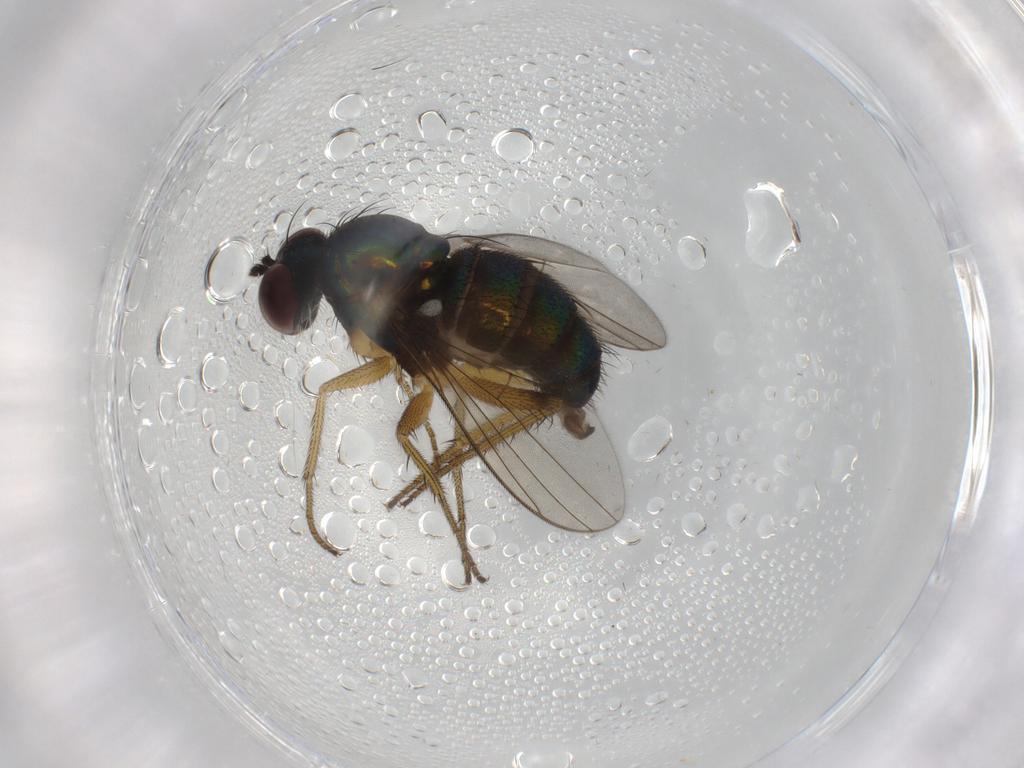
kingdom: Animalia
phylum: Arthropoda
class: Insecta
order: Diptera
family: Dolichopodidae
